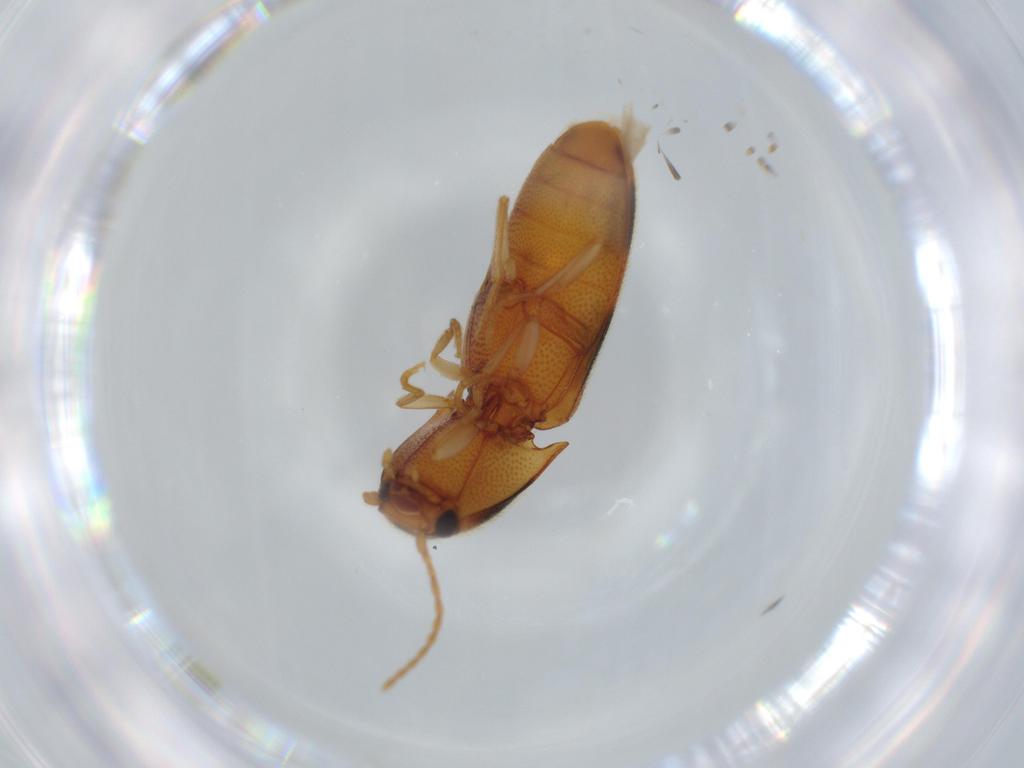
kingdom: Animalia
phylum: Arthropoda
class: Insecta
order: Coleoptera
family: Elateridae
